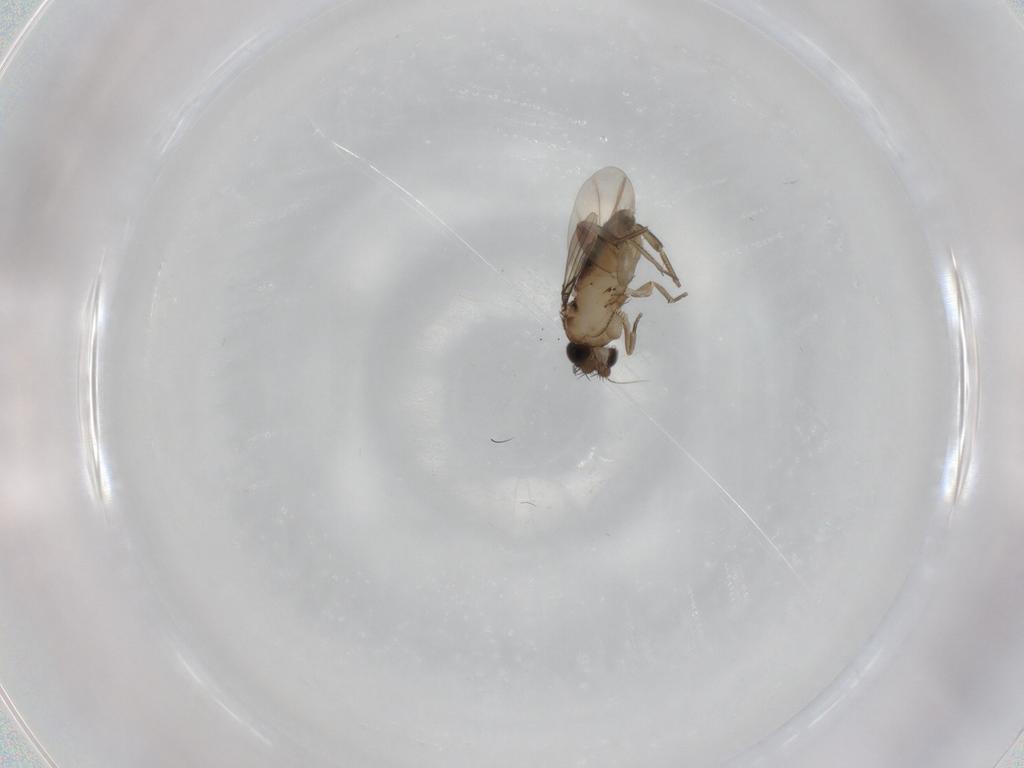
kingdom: Animalia
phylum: Arthropoda
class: Insecta
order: Diptera
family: Phoridae
